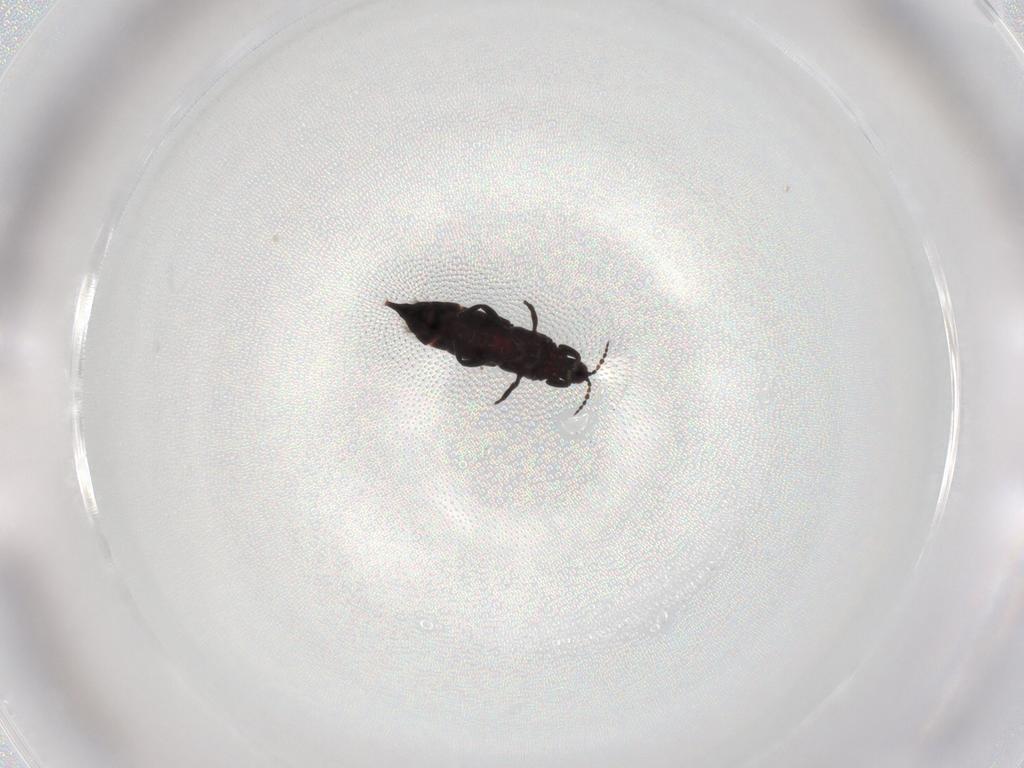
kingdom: Animalia
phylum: Arthropoda
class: Insecta
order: Thysanoptera
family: Phlaeothripidae
